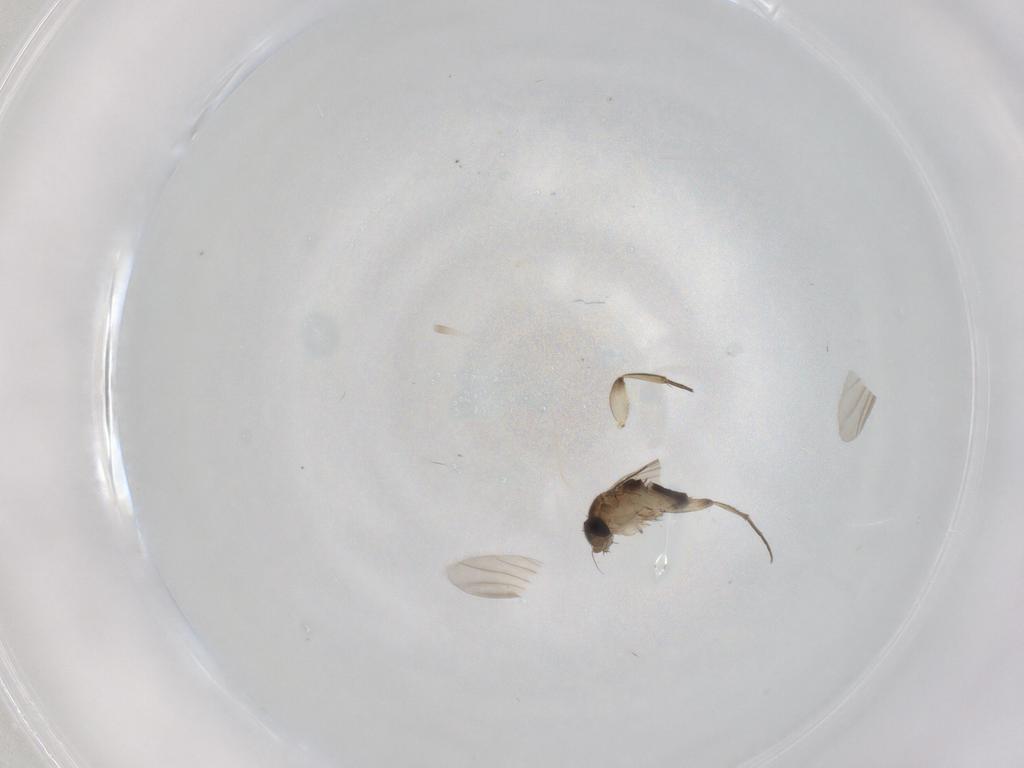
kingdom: Animalia
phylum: Arthropoda
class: Insecta
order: Diptera
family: Phoridae
